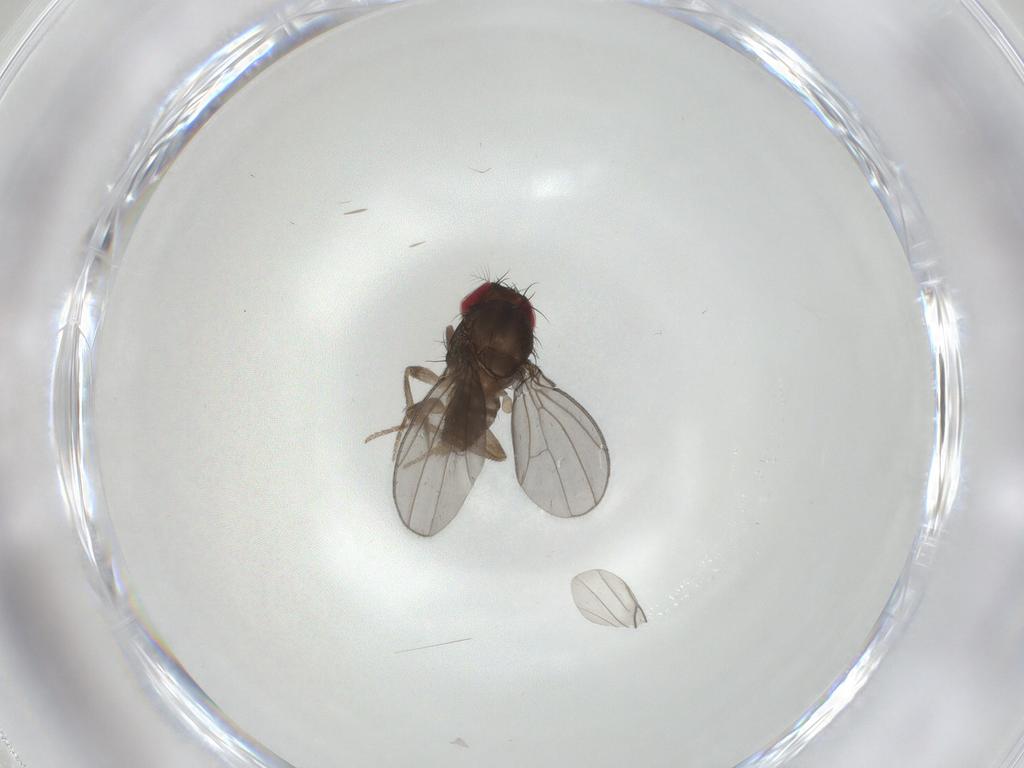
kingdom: Animalia
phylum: Arthropoda
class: Insecta
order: Diptera
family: Drosophilidae
